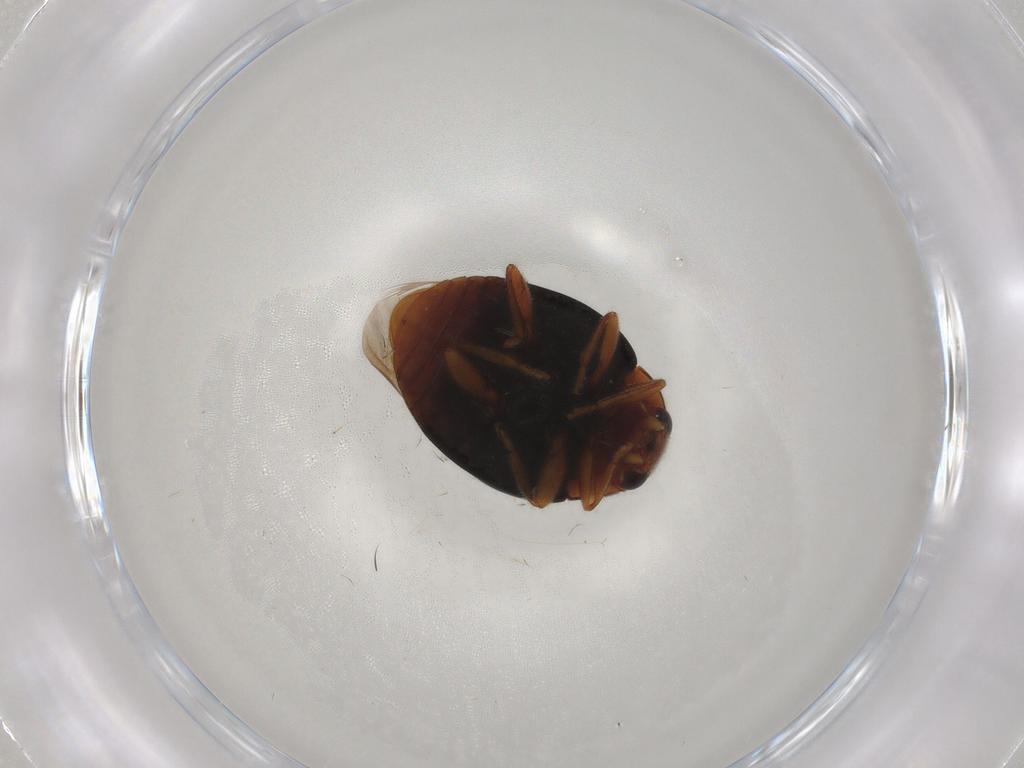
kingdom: Animalia
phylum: Arthropoda
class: Insecta
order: Coleoptera
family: Coccinellidae
